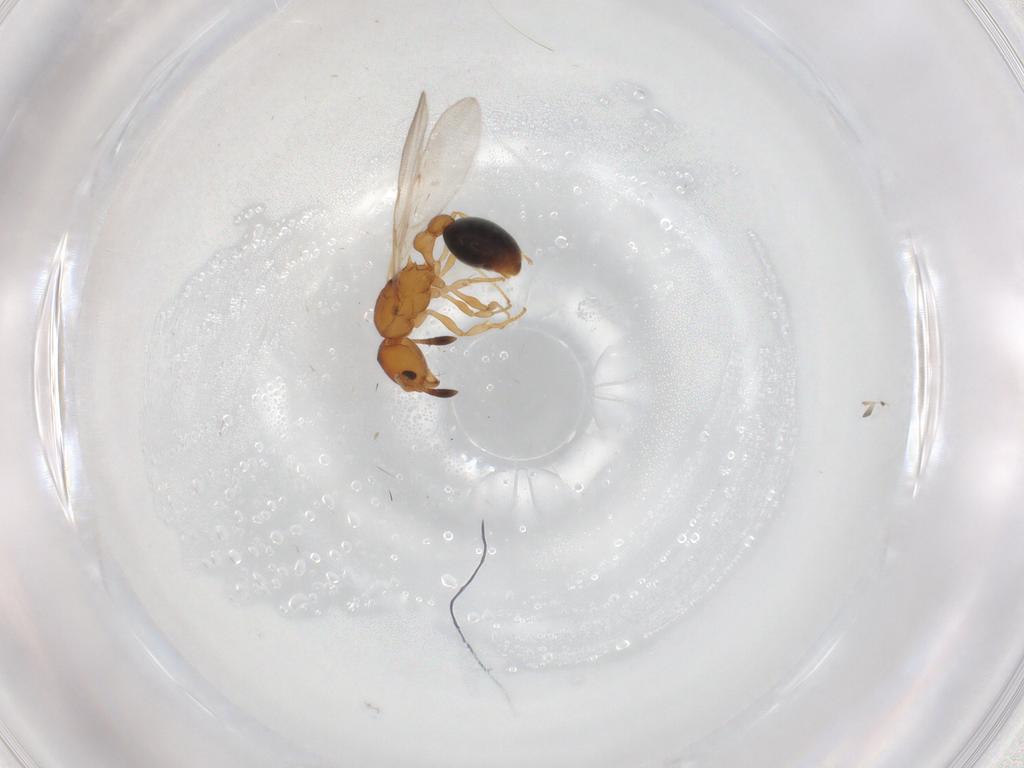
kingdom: Animalia
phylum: Arthropoda
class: Insecta
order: Hymenoptera
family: Formicidae
